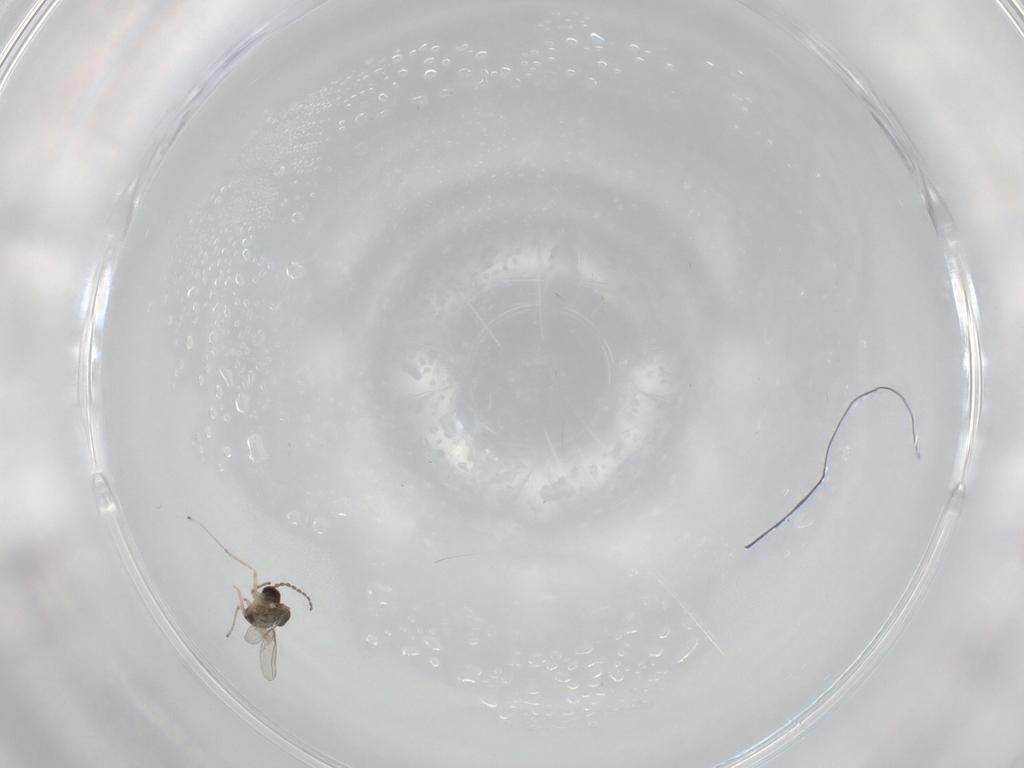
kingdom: Animalia
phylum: Arthropoda
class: Insecta
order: Diptera
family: Cecidomyiidae
